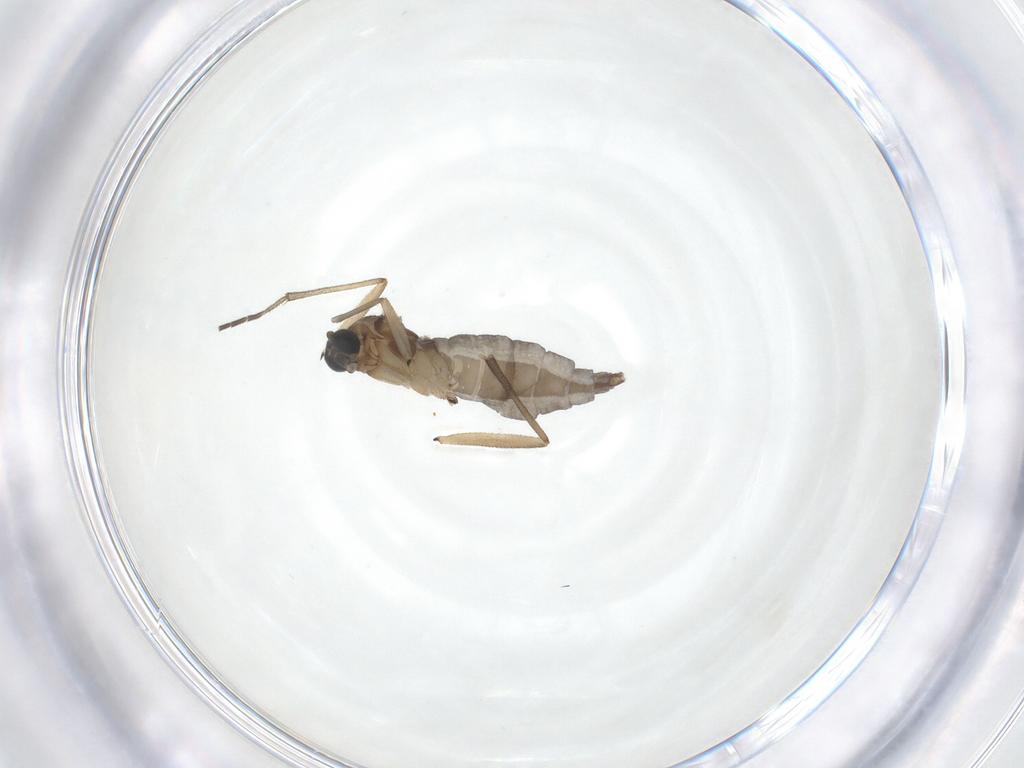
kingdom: Animalia
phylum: Arthropoda
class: Insecta
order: Diptera
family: Sciaridae
